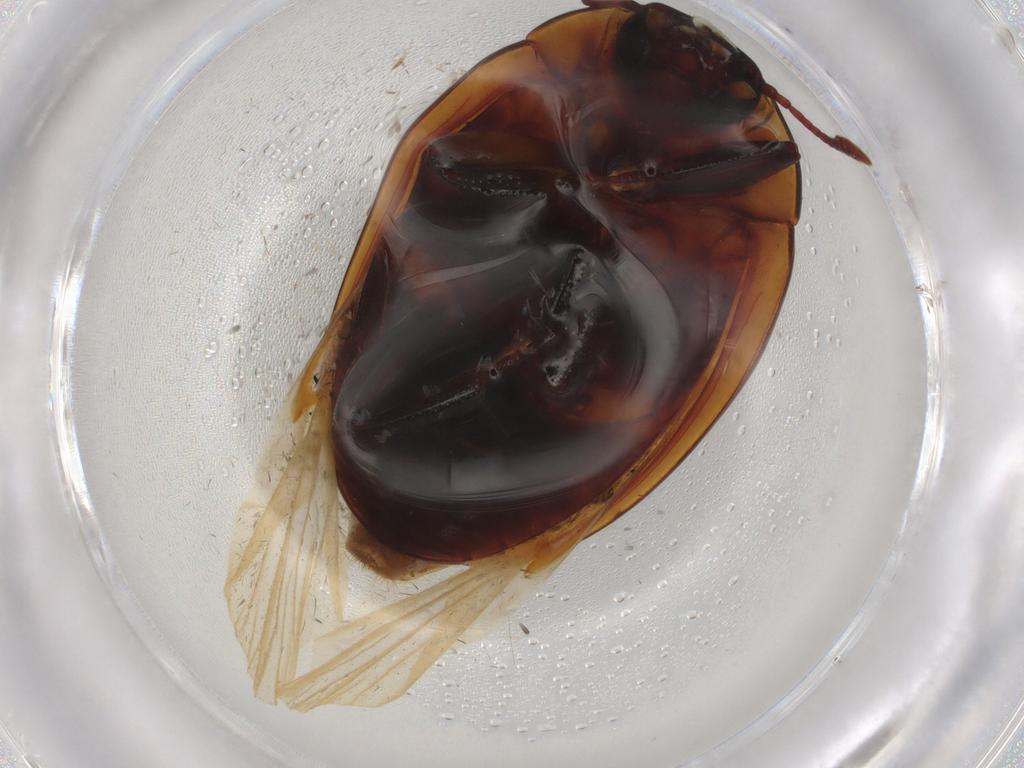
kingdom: Animalia
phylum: Arthropoda
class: Insecta
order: Coleoptera
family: Zopheridae
